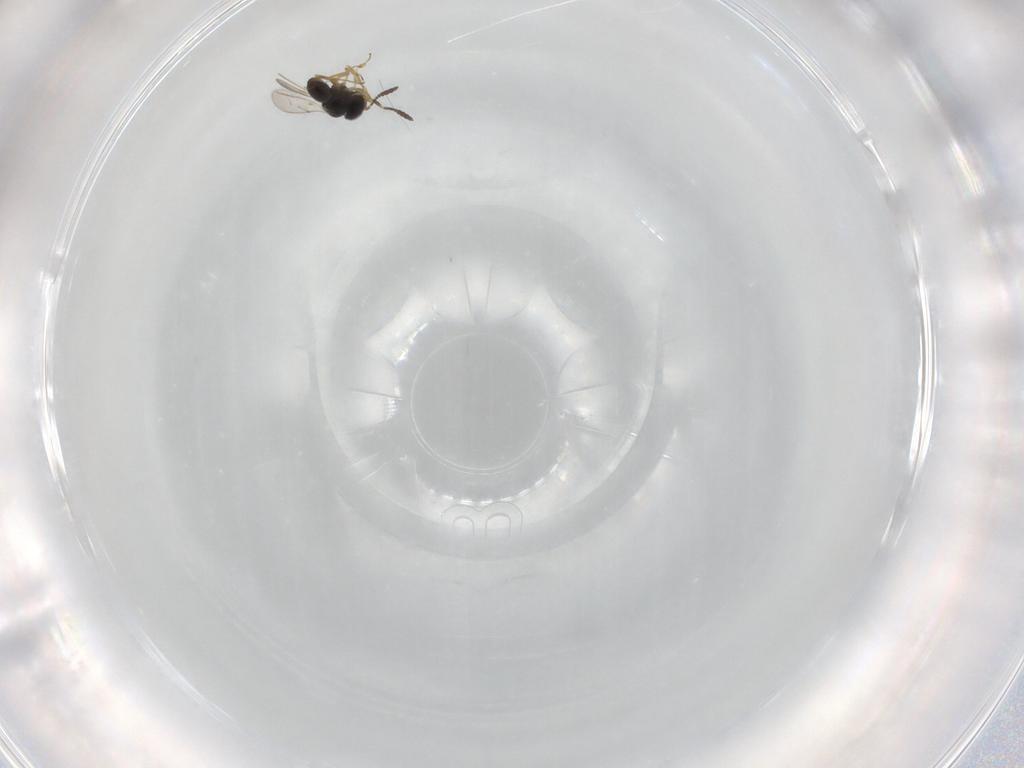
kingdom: Animalia
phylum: Arthropoda
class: Insecta
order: Hymenoptera
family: Scelionidae
